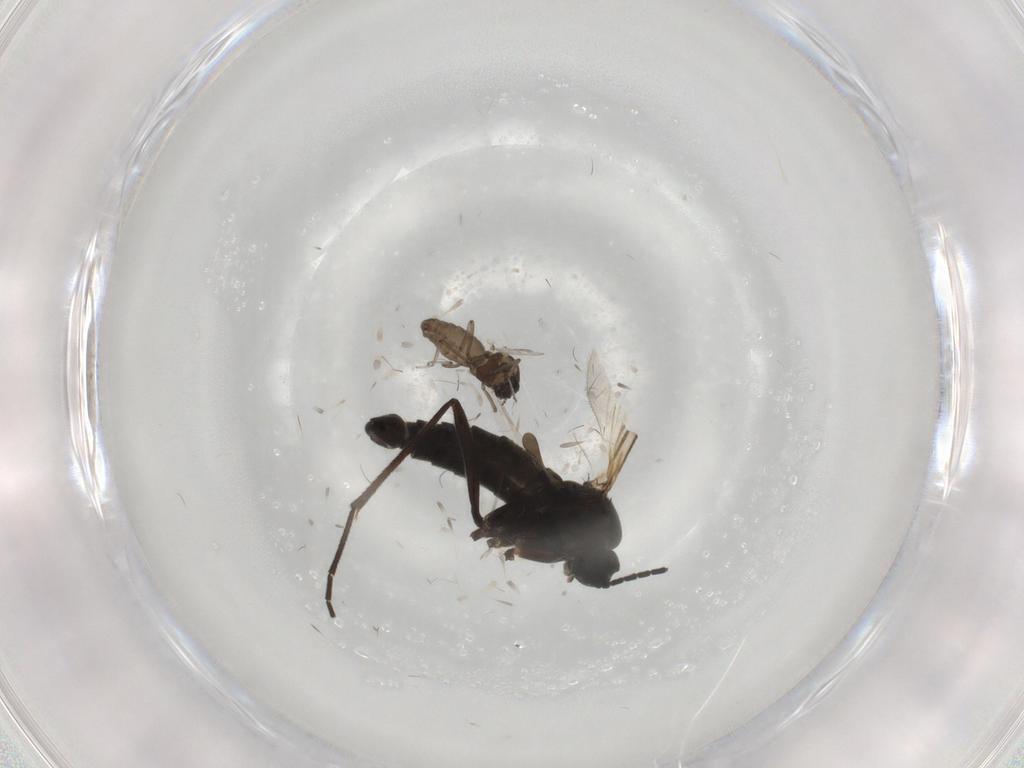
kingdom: Animalia
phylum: Arthropoda
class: Insecta
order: Diptera
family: Ceratopogonidae
